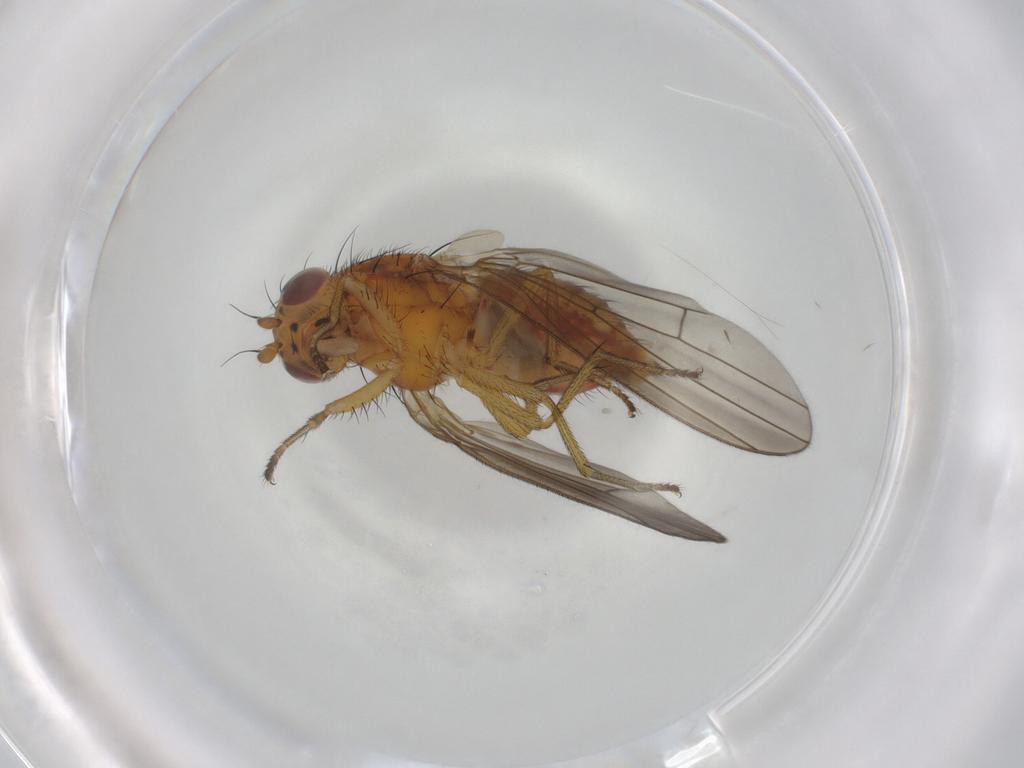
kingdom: Animalia
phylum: Arthropoda
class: Insecta
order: Diptera
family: Lauxaniidae
